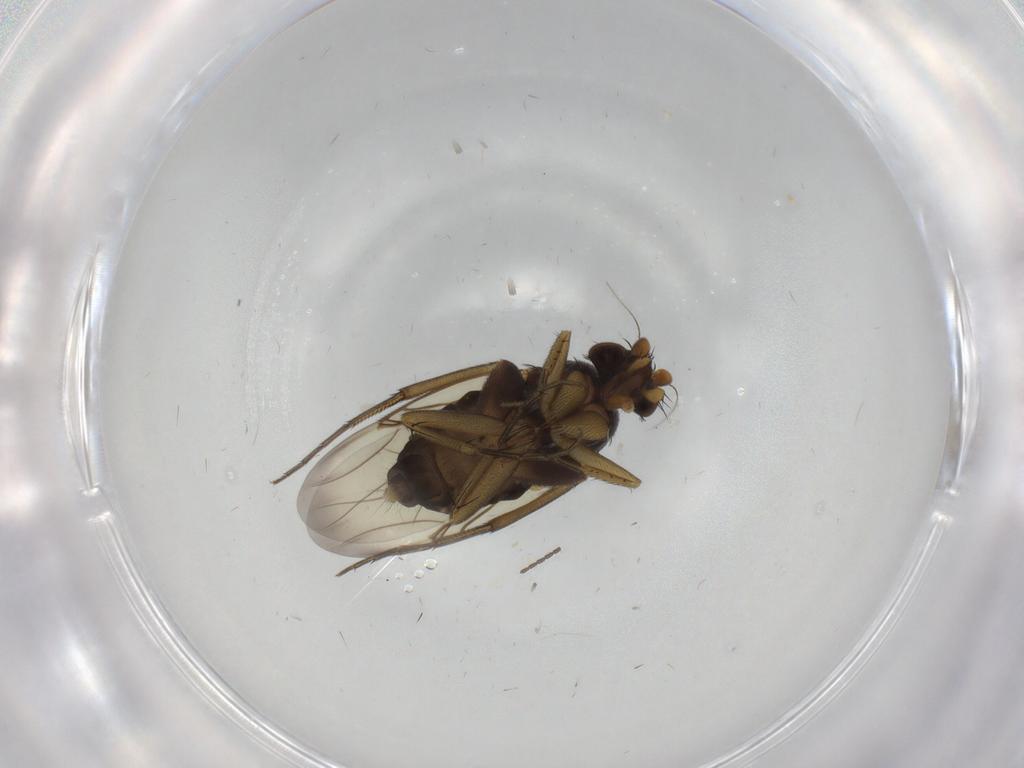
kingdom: Animalia
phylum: Arthropoda
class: Insecta
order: Diptera
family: Phoridae
